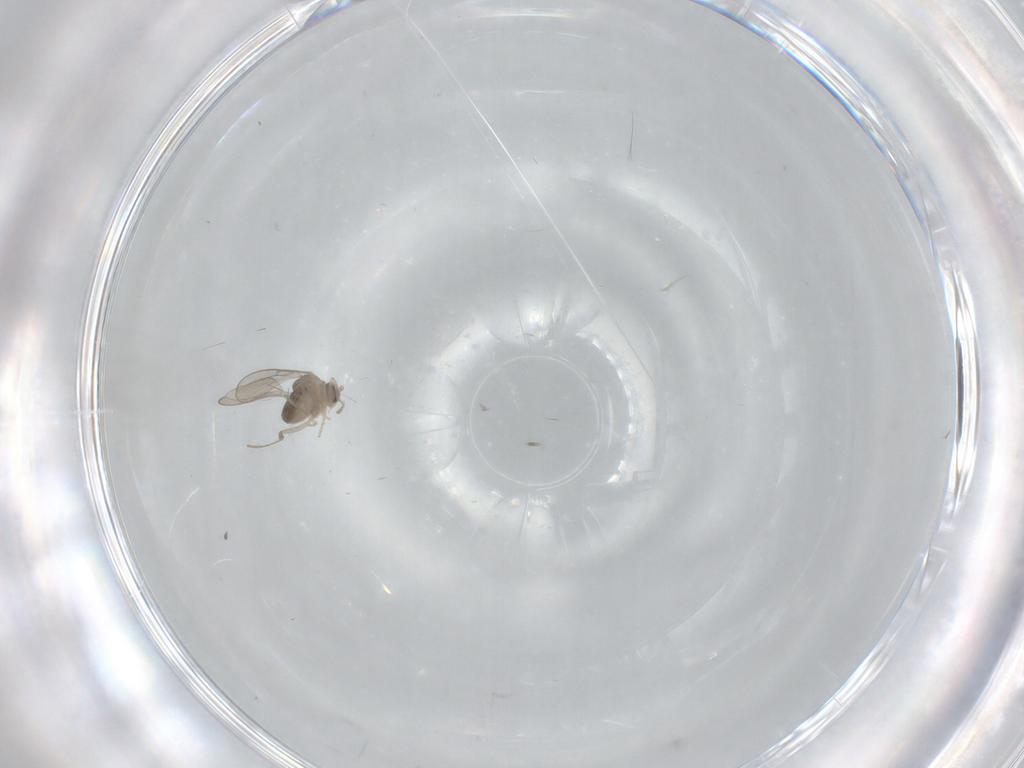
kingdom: Animalia
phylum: Arthropoda
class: Insecta
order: Diptera
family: Cecidomyiidae
